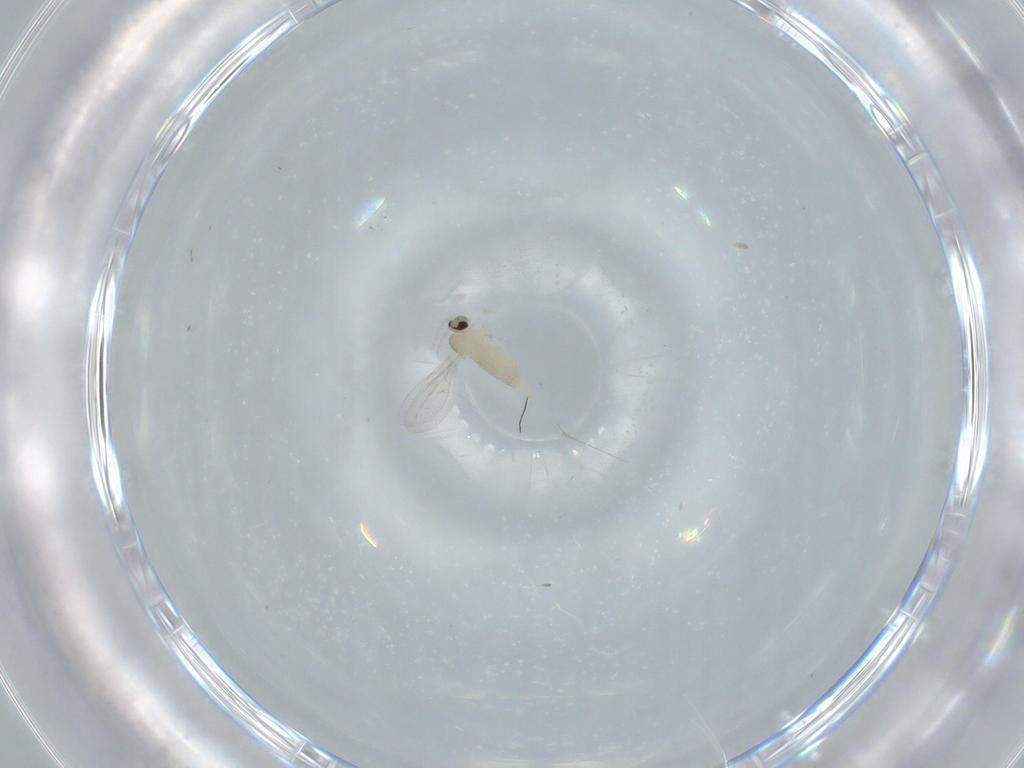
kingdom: Animalia
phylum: Arthropoda
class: Insecta
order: Diptera
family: Cecidomyiidae
